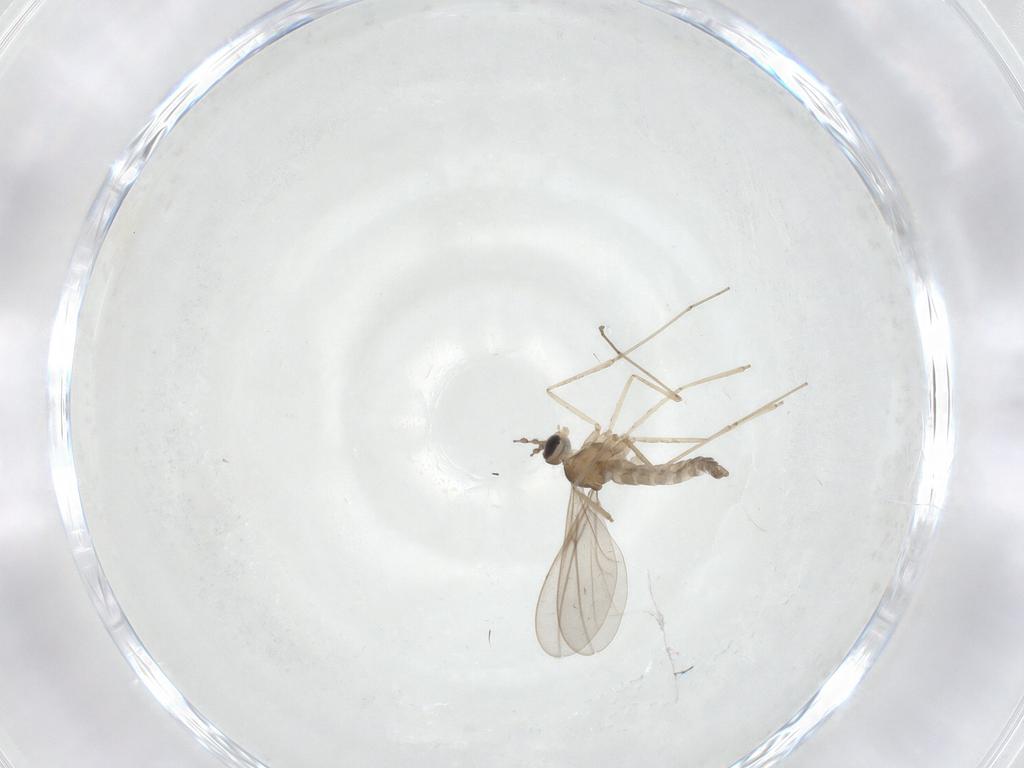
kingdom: Animalia
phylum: Arthropoda
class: Insecta
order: Diptera
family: Cecidomyiidae
